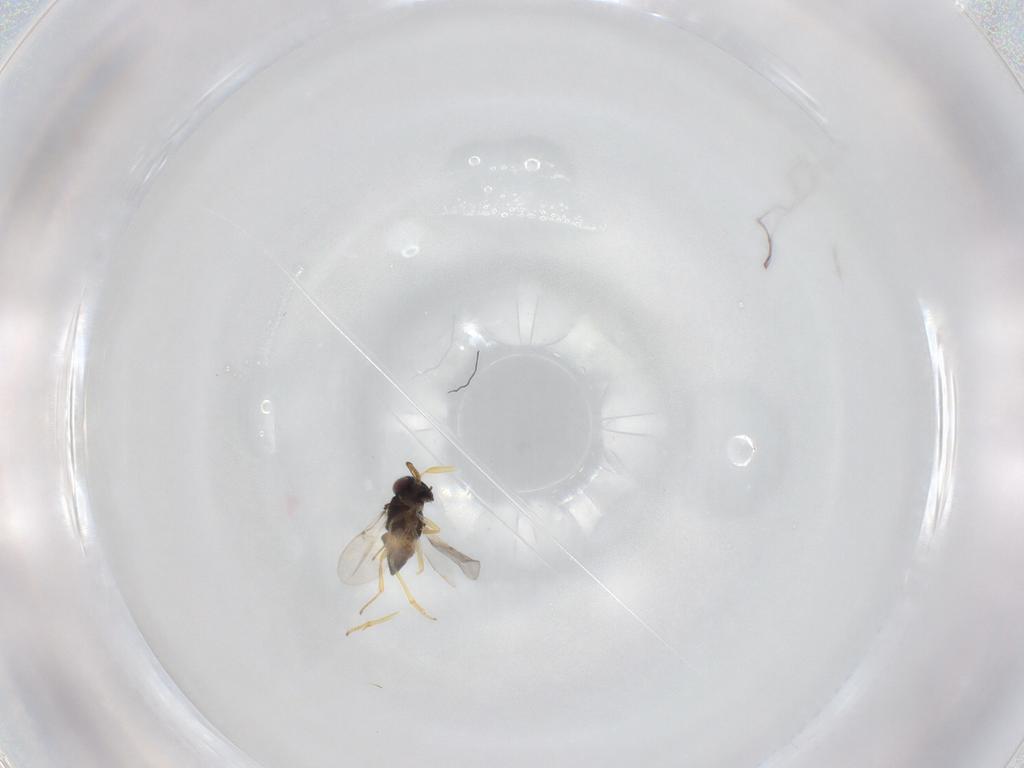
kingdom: Animalia
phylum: Arthropoda
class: Insecta
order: Hymenoptera
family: Encyrtidae
